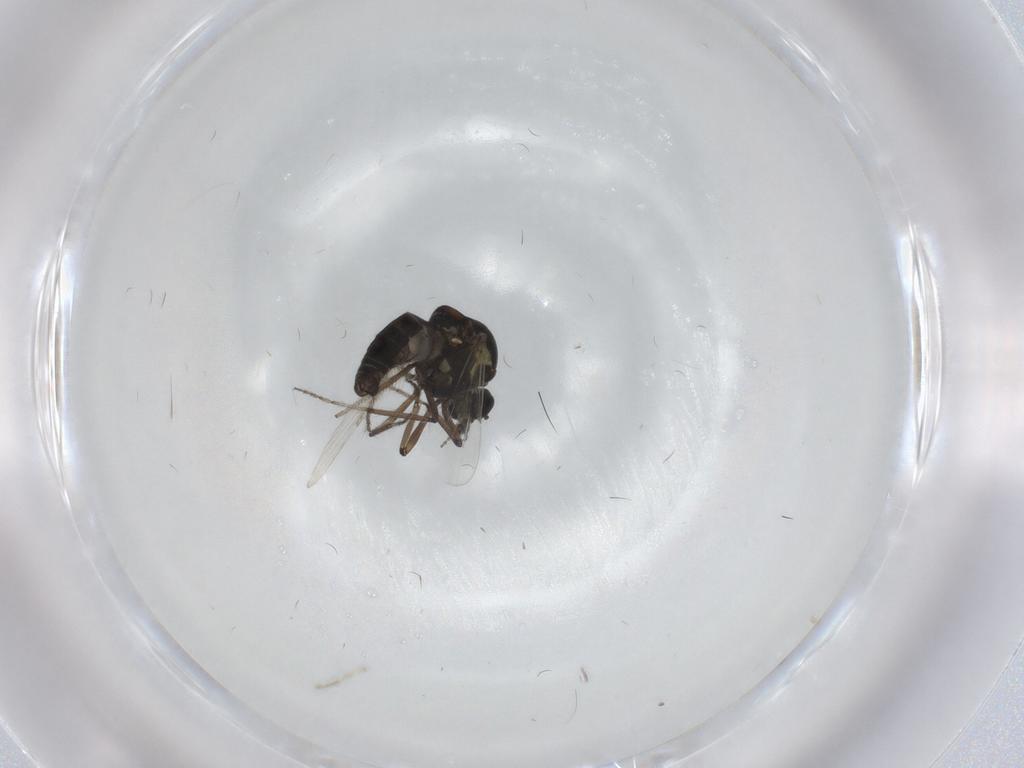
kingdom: Animalia
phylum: Arthropoda
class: Insecta
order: Diptera
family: Ceratopogonidae
